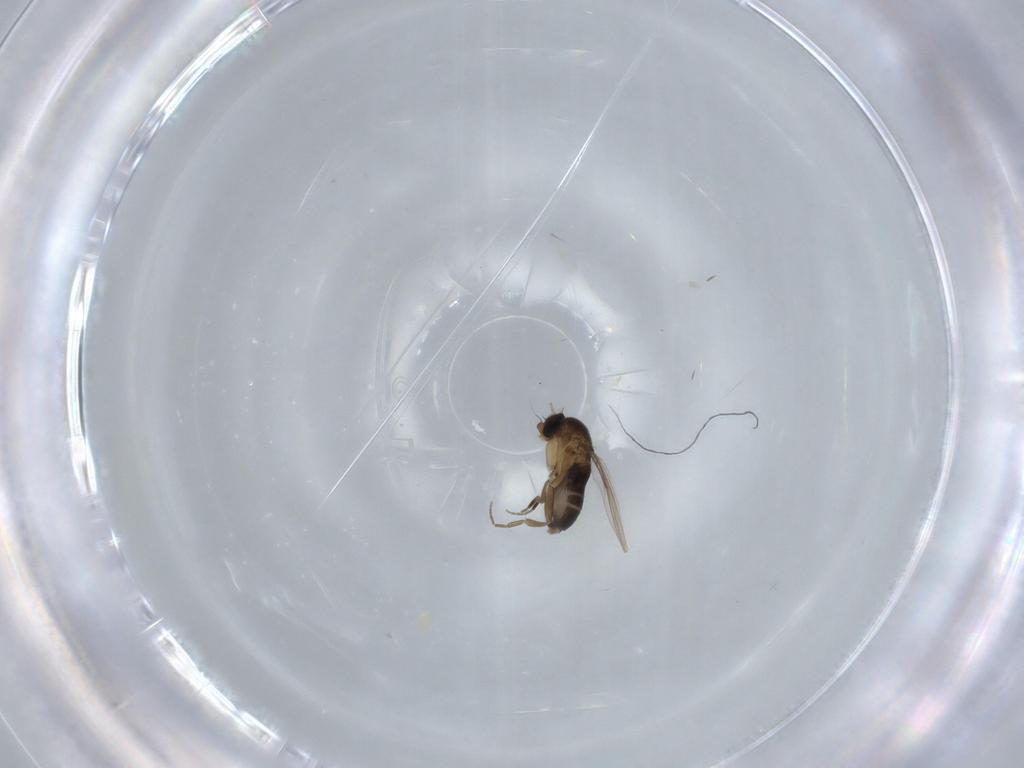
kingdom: Animalia
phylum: Arthropoda
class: Insecta
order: Diptera
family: Phoridae
